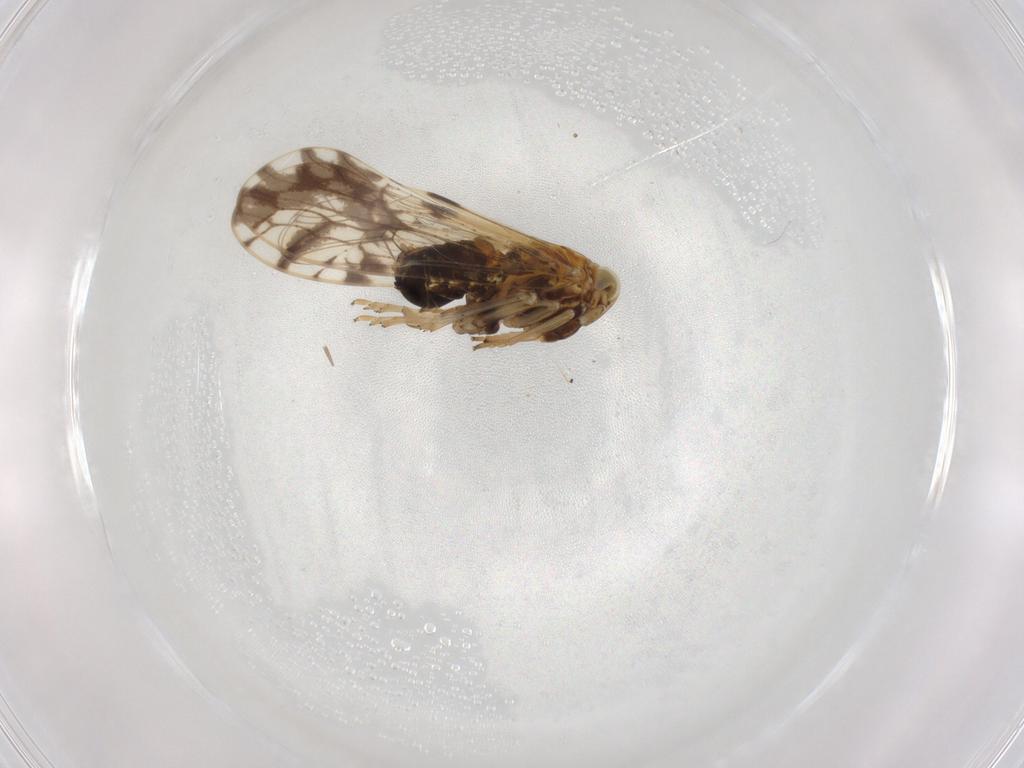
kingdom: Animalia
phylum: Arthropoda
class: Insecta
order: Hemiptera
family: Delphacidae
